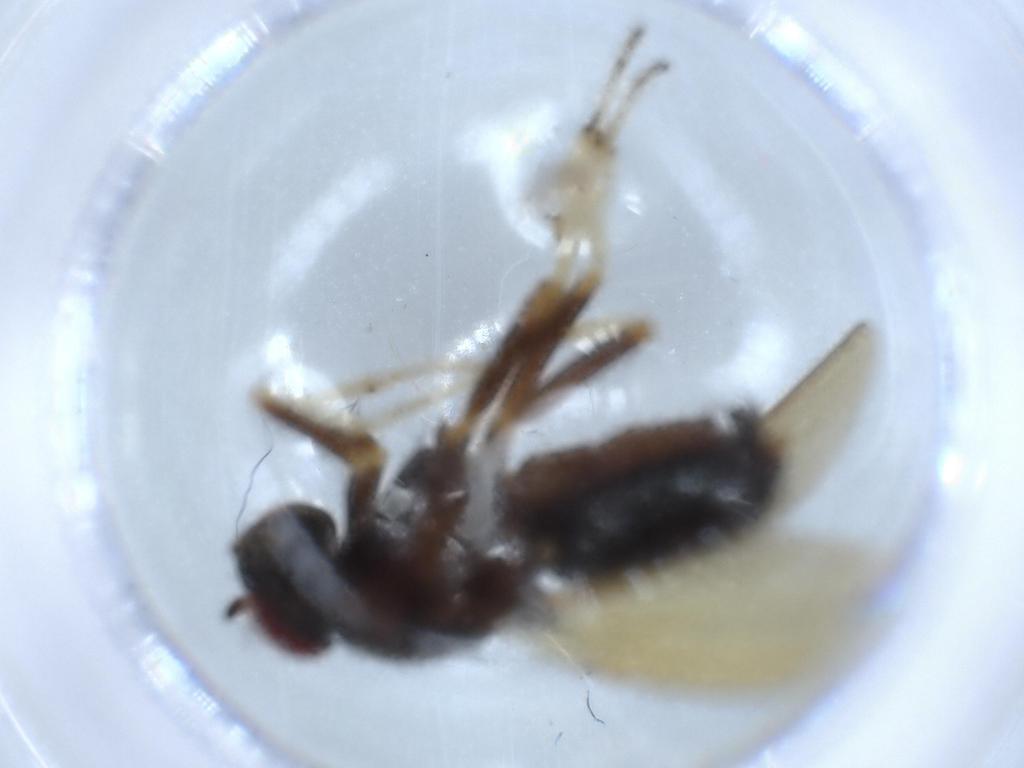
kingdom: Animalia
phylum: Arthropoda
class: Insecta
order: Diptera
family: Cecidomyiidae
